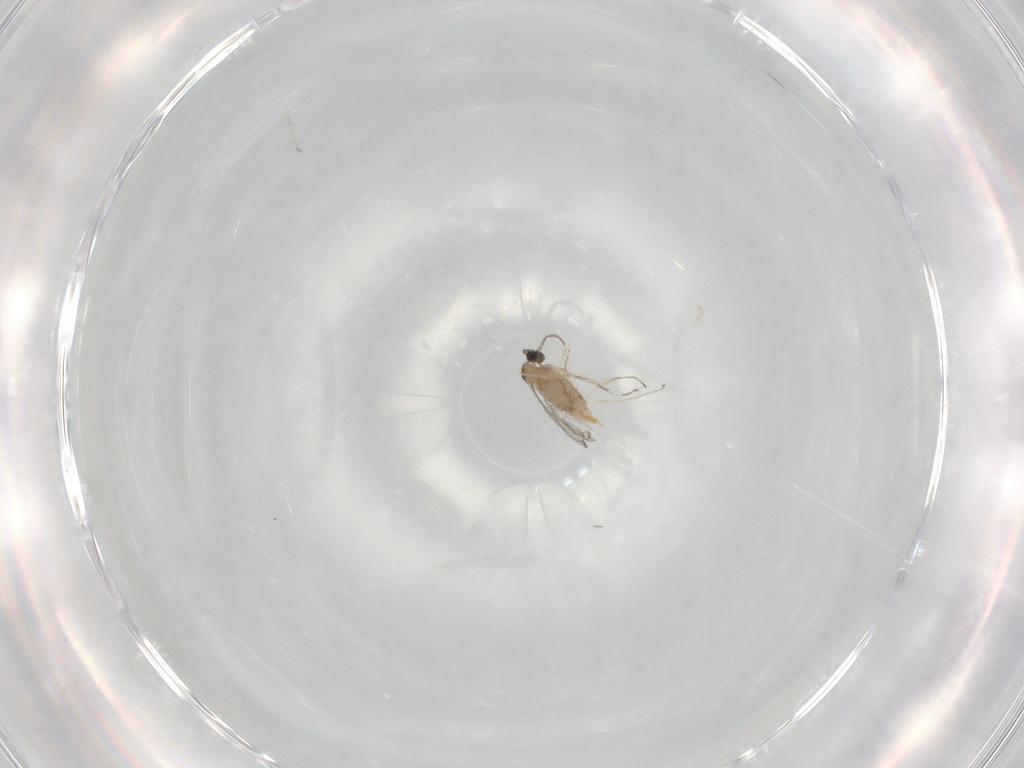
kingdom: Animalia
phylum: Arthropoda
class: Insecta
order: Diptera
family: Cecidomyiidae
